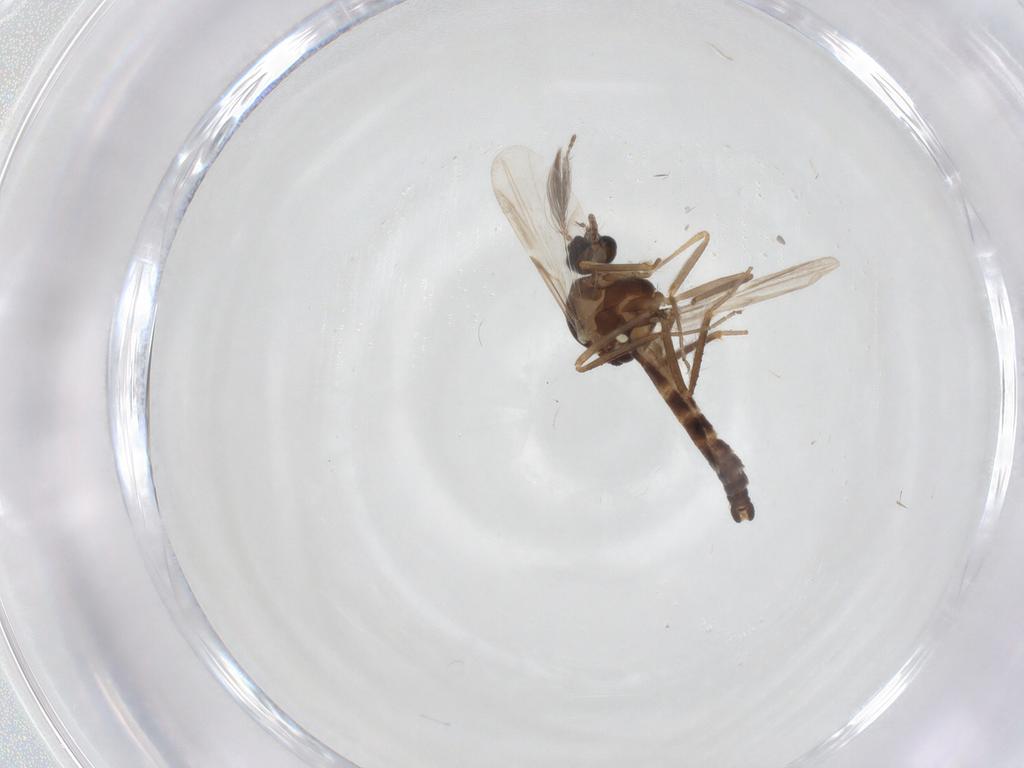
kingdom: Animalia
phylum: Arthropoda
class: Insecta
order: Diptera
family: Ceratopogonidae
